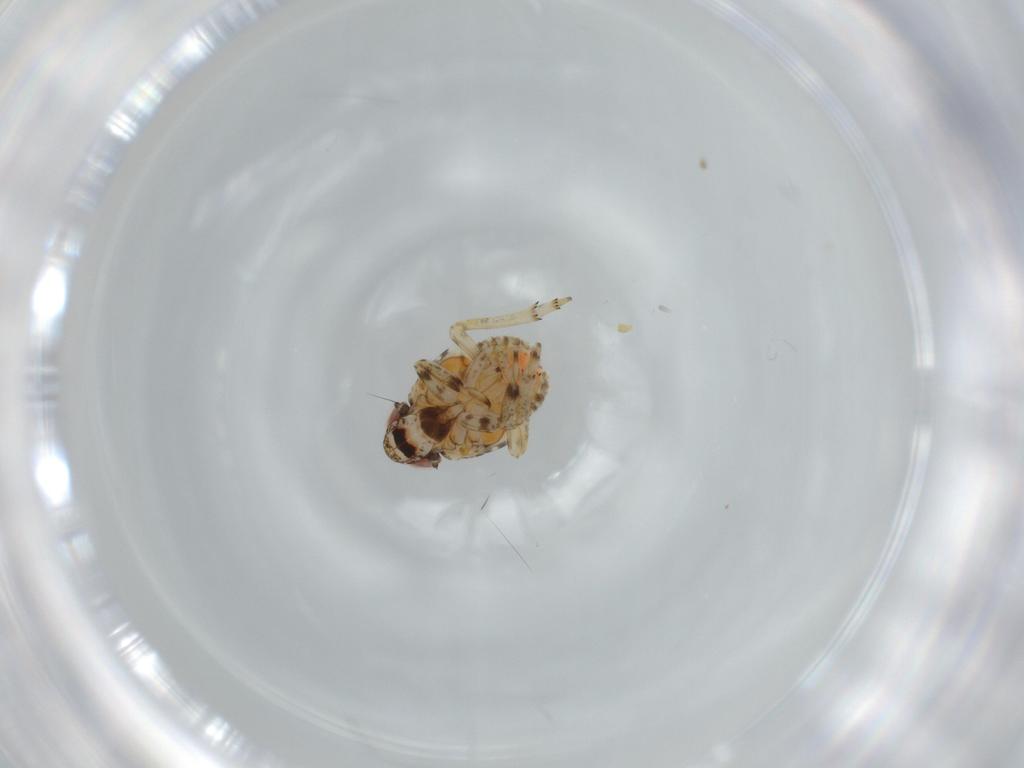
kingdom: Animalia
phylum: Arthropoda
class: Insecta
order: Hemiptera
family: Issidae
